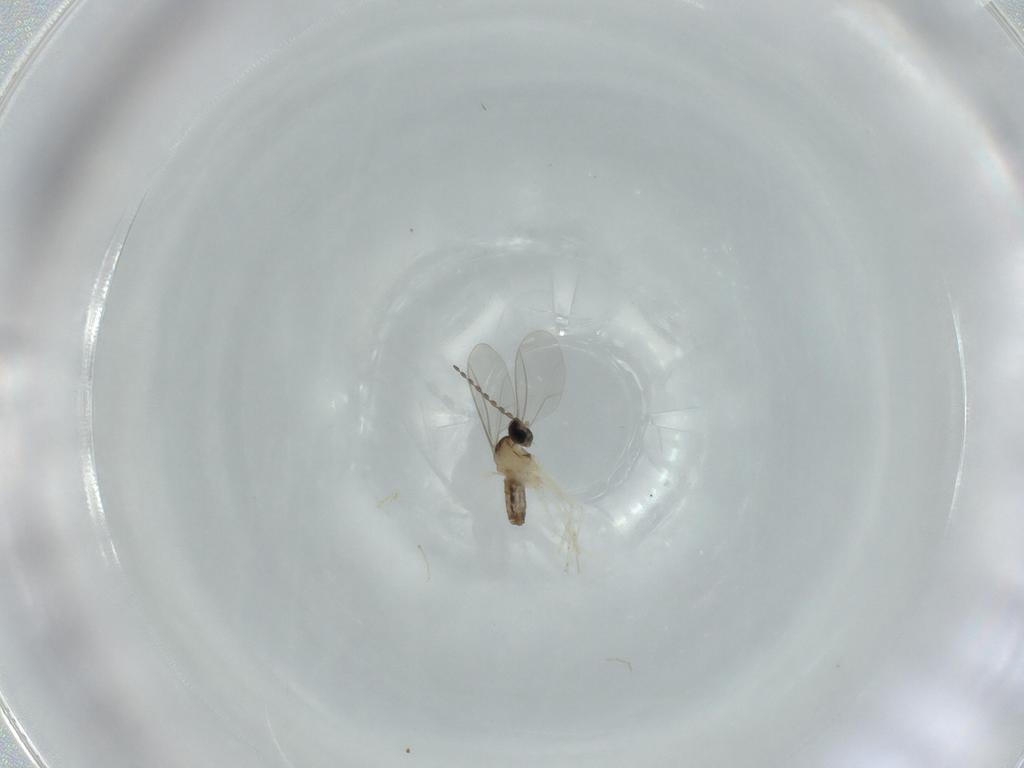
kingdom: Animalia
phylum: Arthropoda
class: Insecta
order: Diptera
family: Cecidomyiidae
